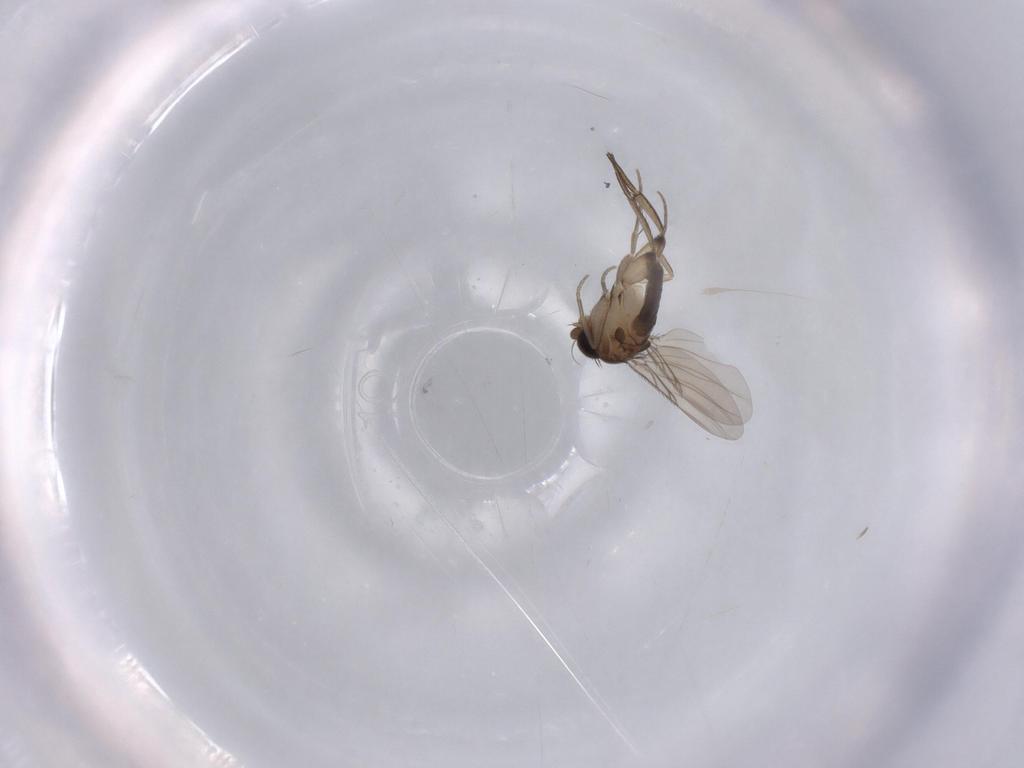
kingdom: Animalia
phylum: Arthropoda
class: Insecta
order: Diptera
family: Phoridae
